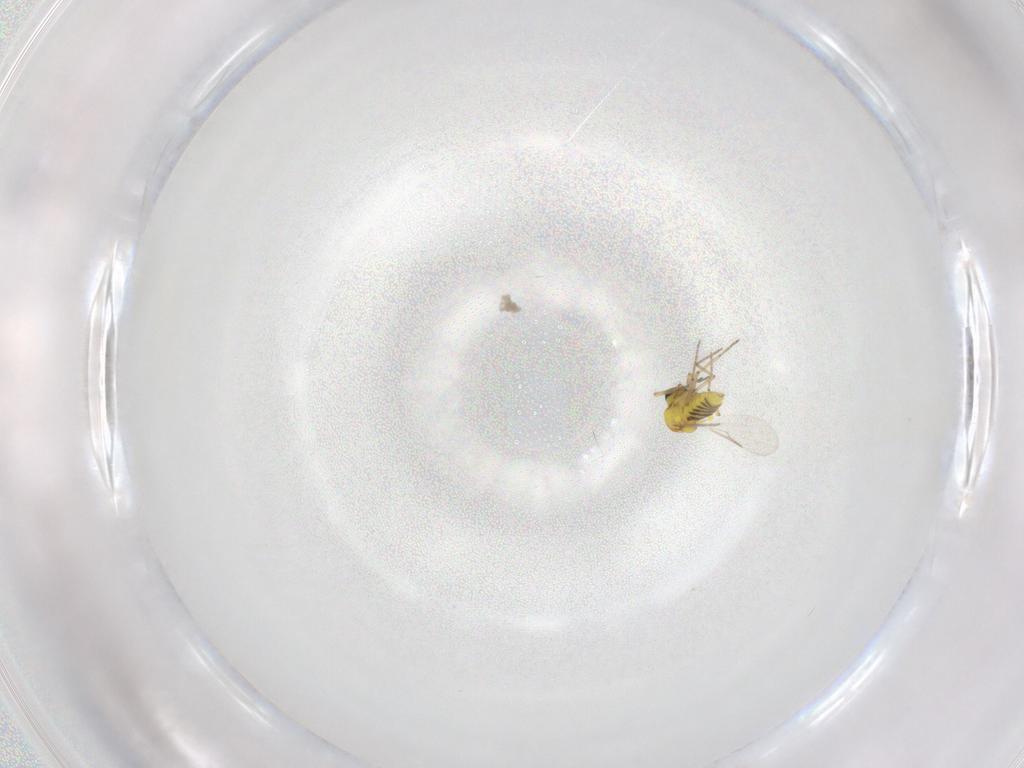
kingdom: Animalia
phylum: Arthropoda
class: Insecta
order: Diptera
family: Ceratopogonidae
